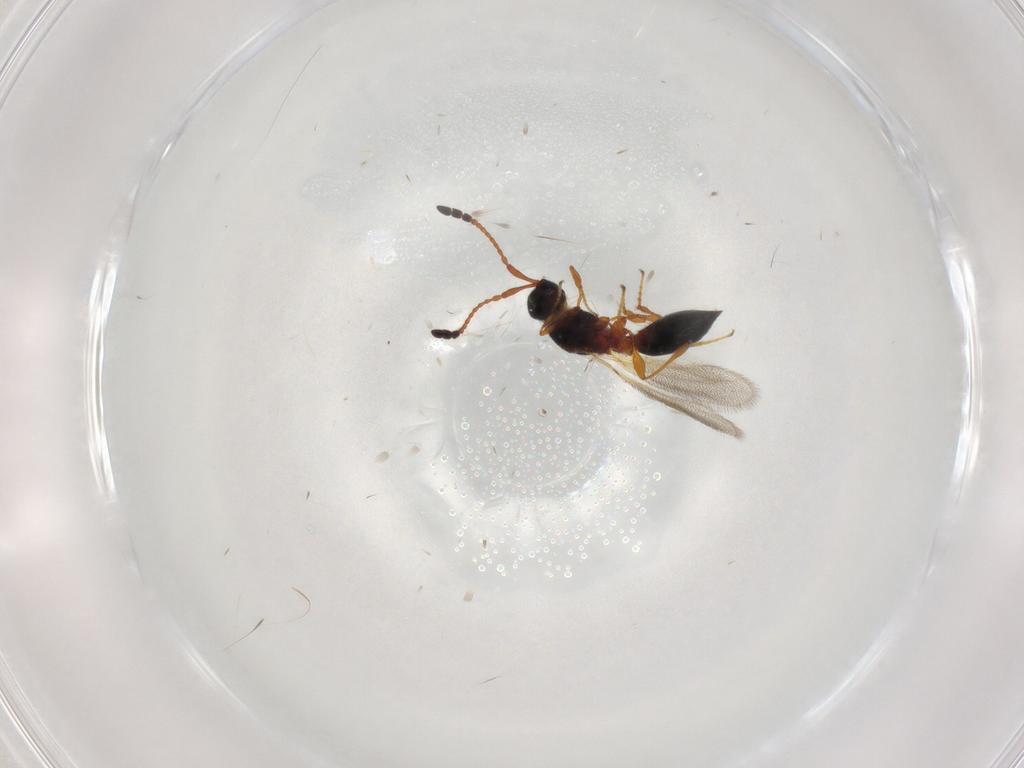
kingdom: Animalia
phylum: Arthropoda
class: Insecta
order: Hymenoptera
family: Diapriidae
